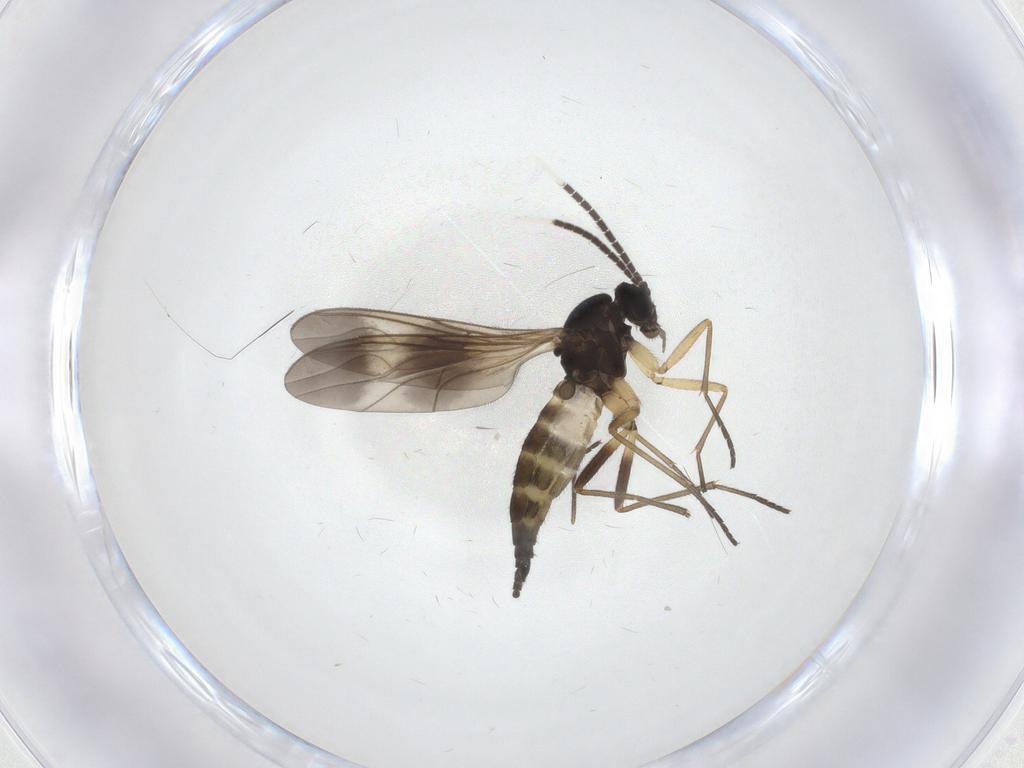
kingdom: Animalia
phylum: Arthropoda
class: Insecta
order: Diptera
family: Sciaridae
